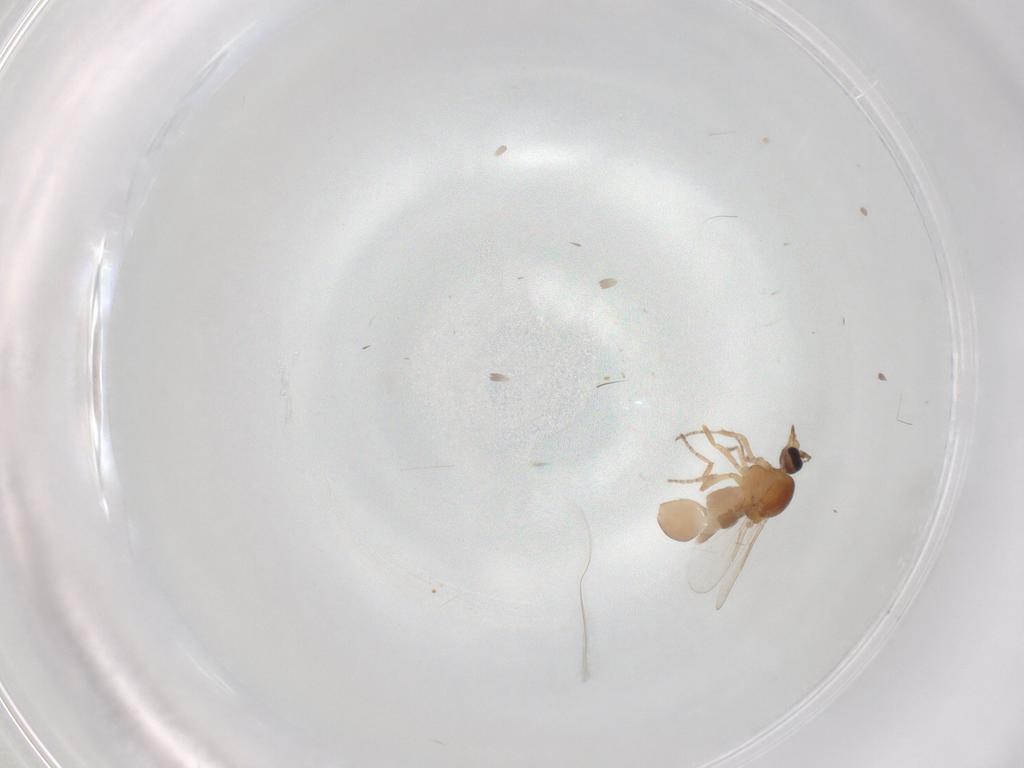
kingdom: Animalia
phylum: Arthropoda
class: Insecta
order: Diptera
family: Ceratopogonidae
